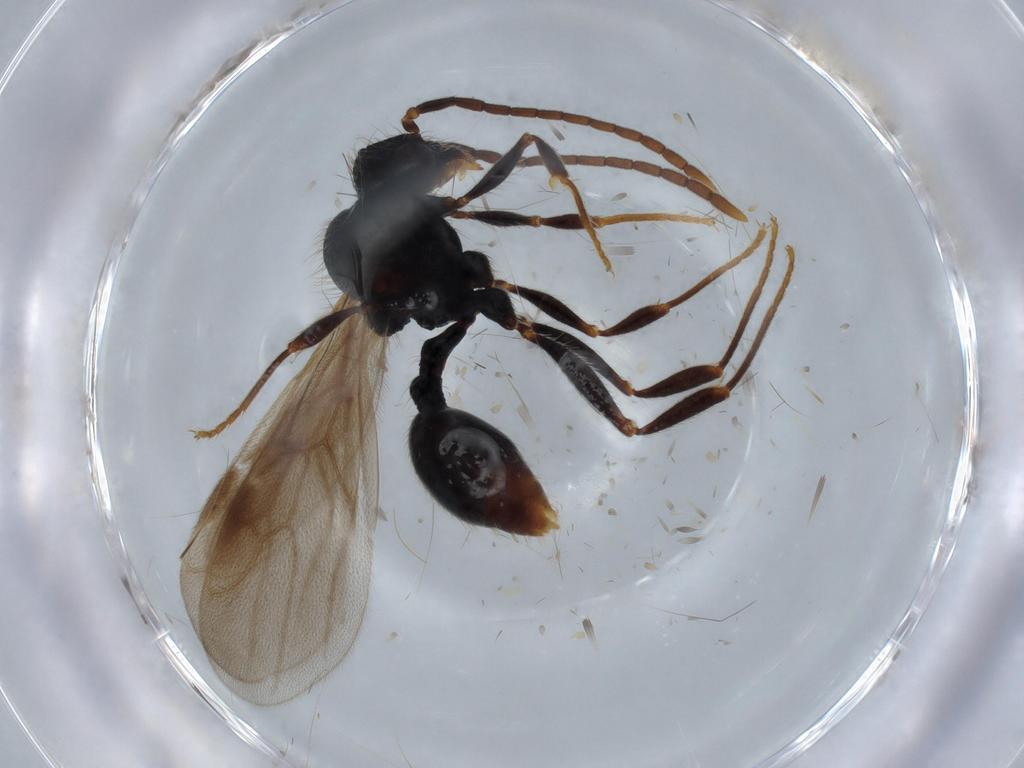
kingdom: Animalia
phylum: Arthropoda
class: Insecta
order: Hymenoptera
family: Formicidae
